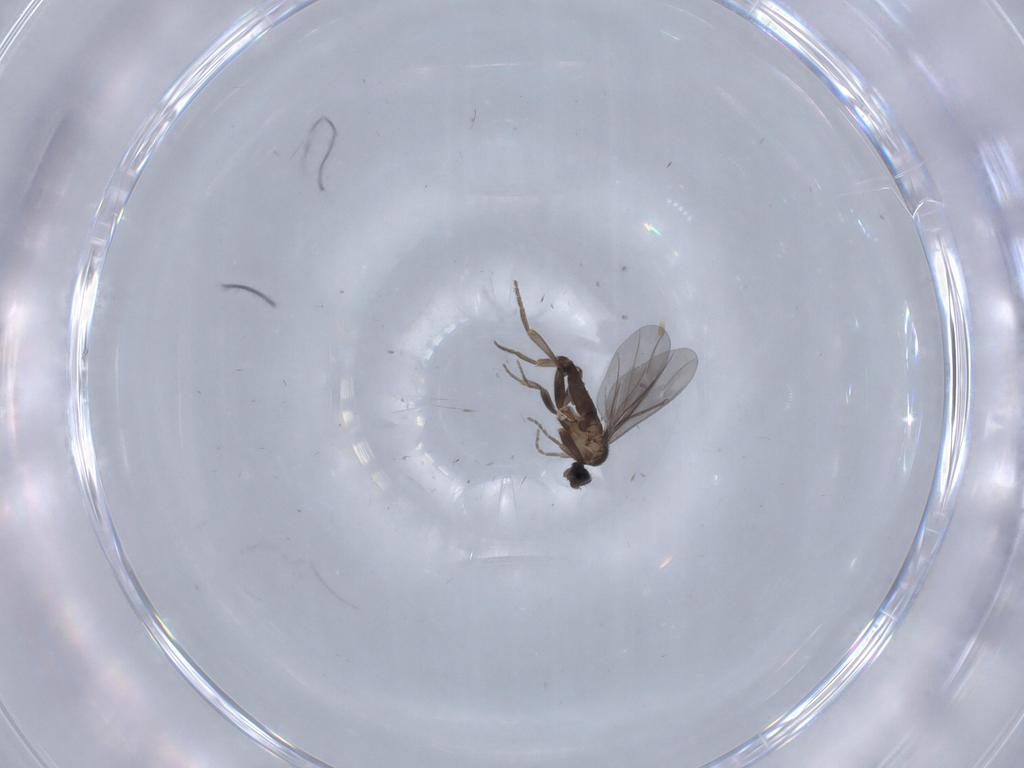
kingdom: Animalia
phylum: Arthropoda
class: Insecta
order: Diptera
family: Phoridae
